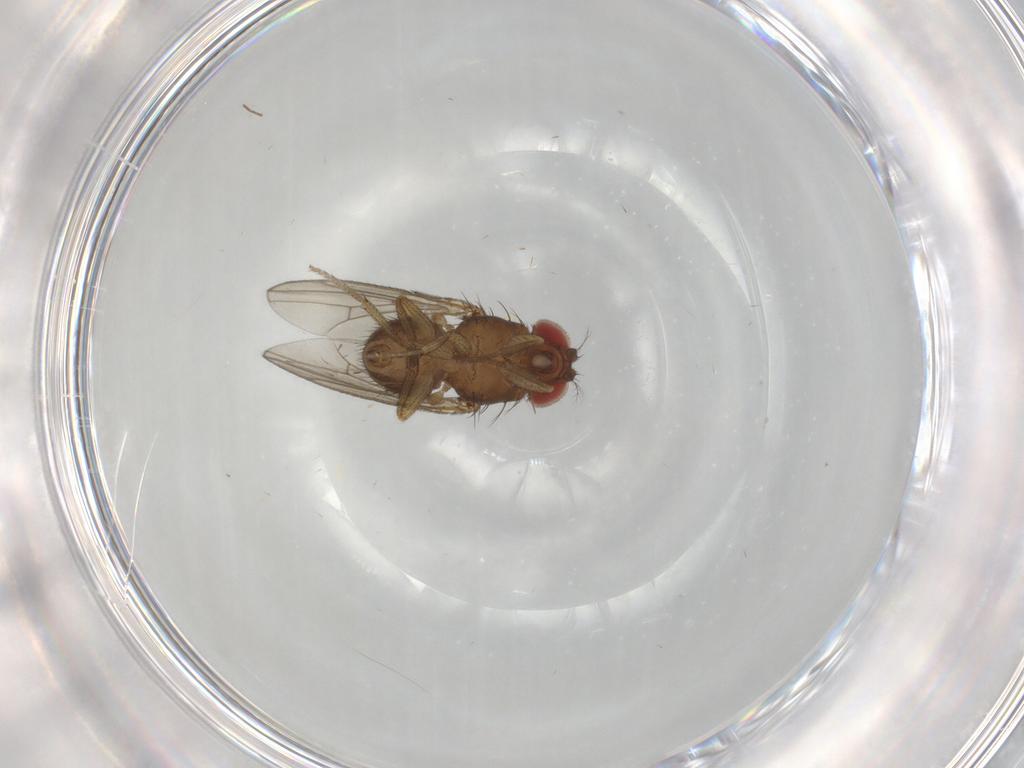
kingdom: Animalia
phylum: Arthropoda
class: Insecta
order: Diptera
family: Drosophilidae
